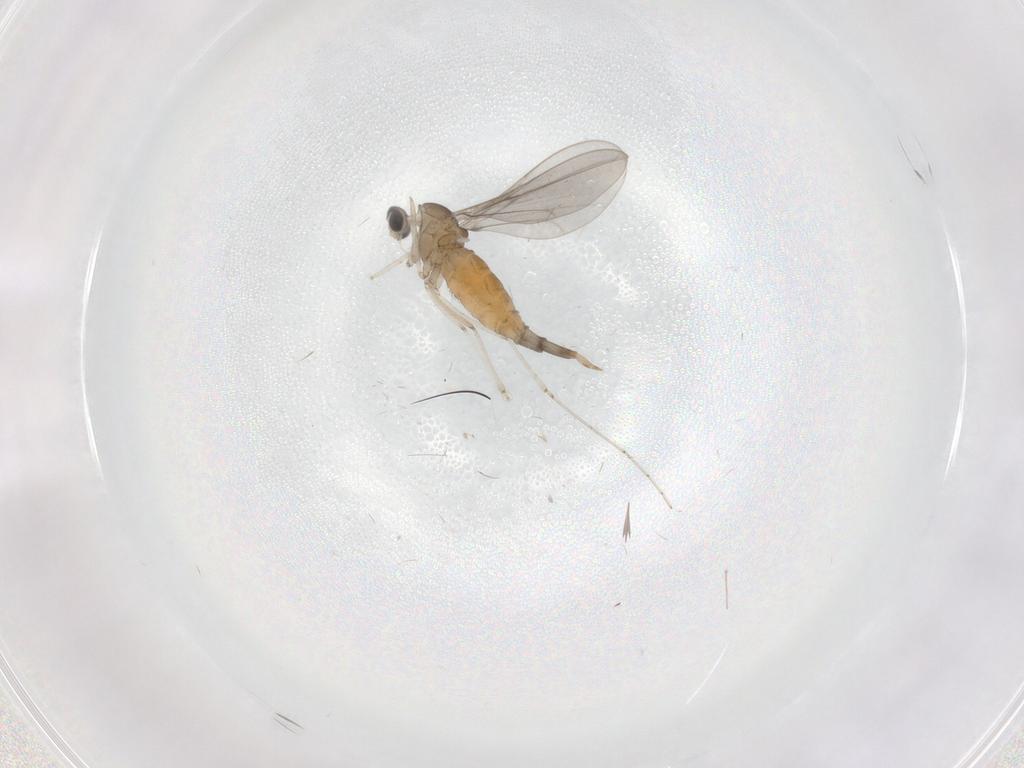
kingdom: Animalia
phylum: Arthropoda
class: Insecta
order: Diptera
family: Cecidomyiidae
